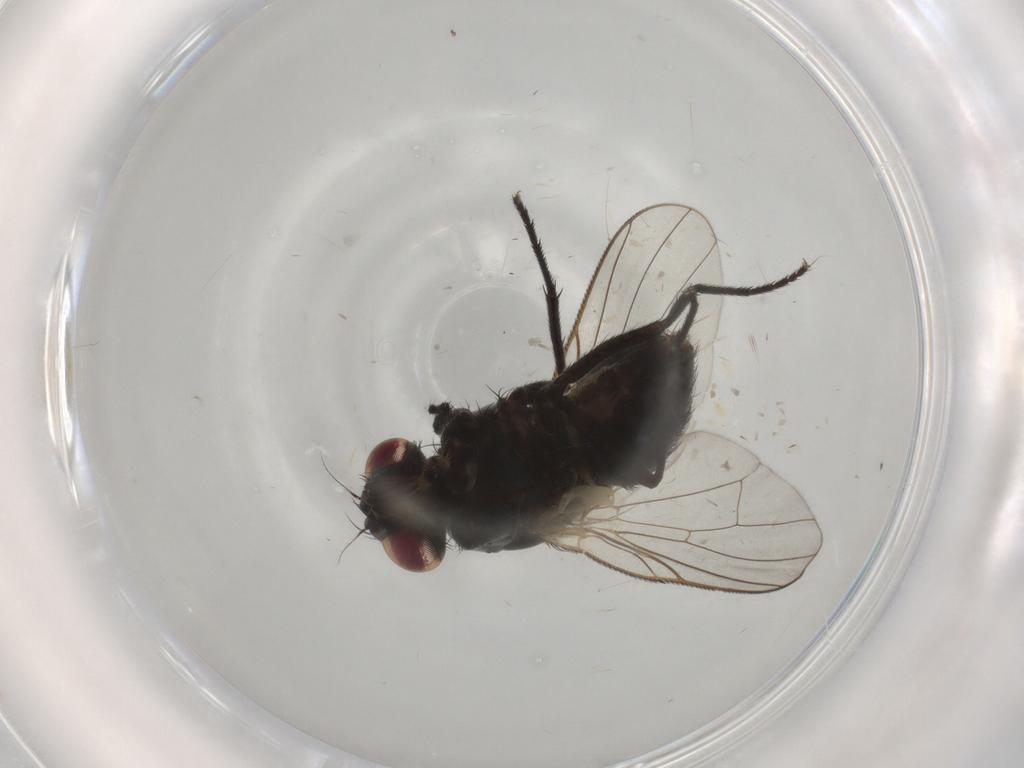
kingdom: Animalia
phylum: Arthropoda
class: Insecta
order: Diptera
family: Muscidae
